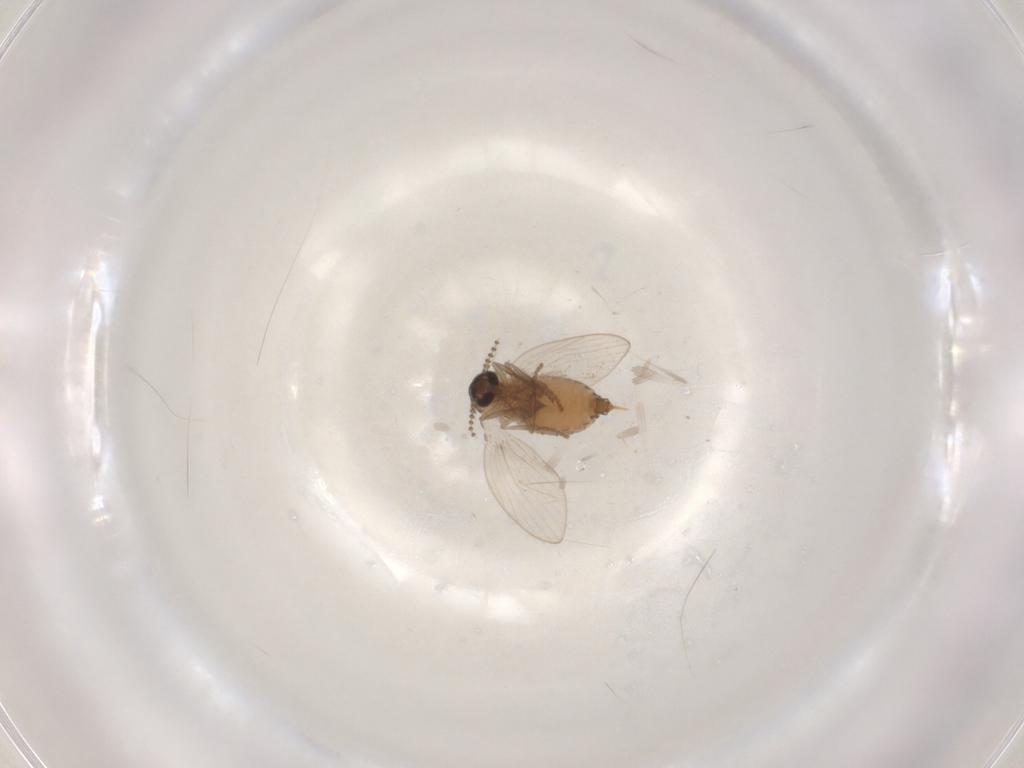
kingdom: Animalia
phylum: Arthropoda
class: Insecta
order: Diptera
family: Psychodidae
